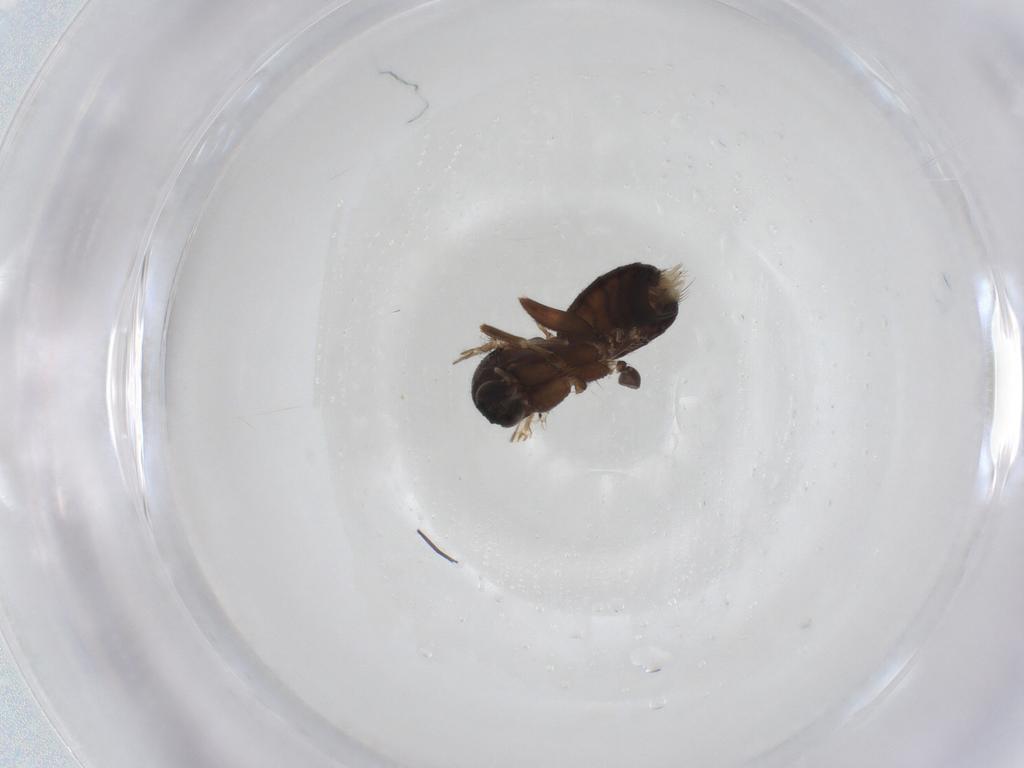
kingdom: Animalia
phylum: Arthropoda
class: Insecta
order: Diptera
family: Mycetophilidae
